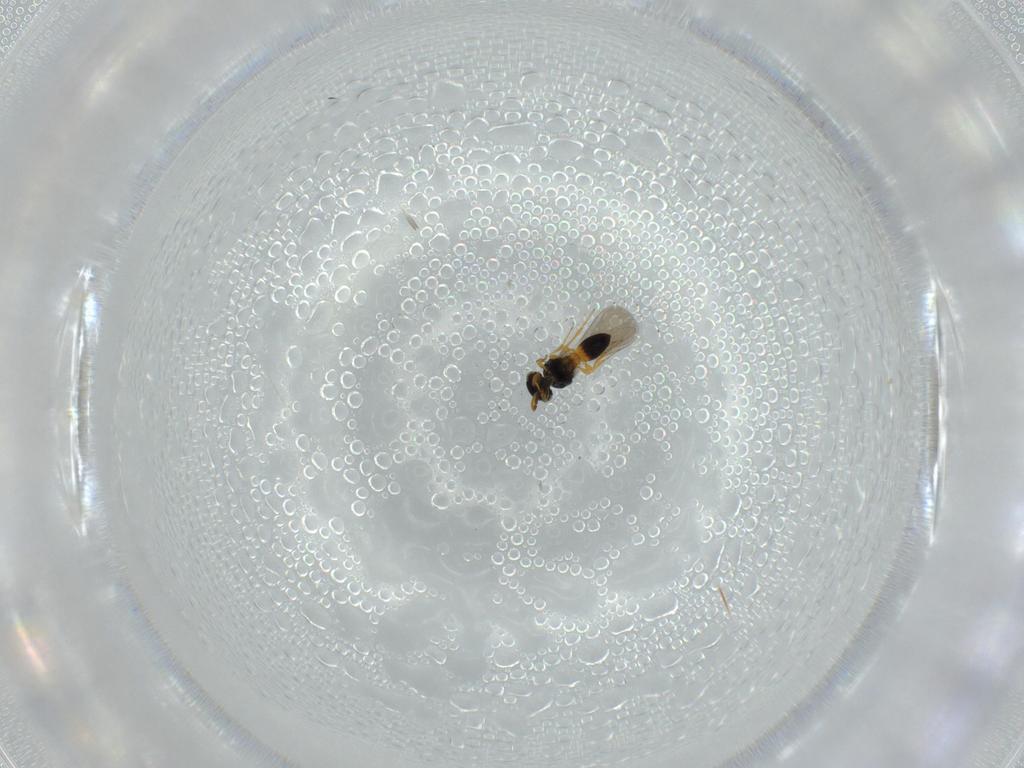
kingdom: Animalia
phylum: Arthropoda
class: Insecta
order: Hymenoptera
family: Platygastridae
